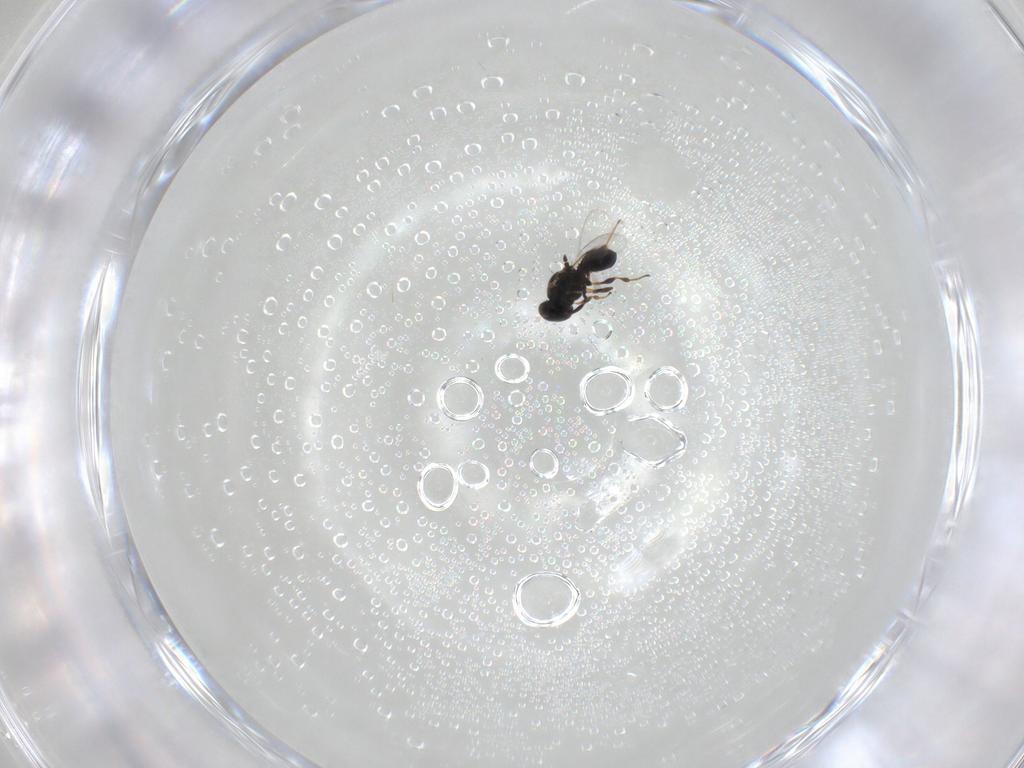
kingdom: Animalia
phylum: Arthropoda
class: Insecta
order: Hymenoptera
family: Platygastridae
